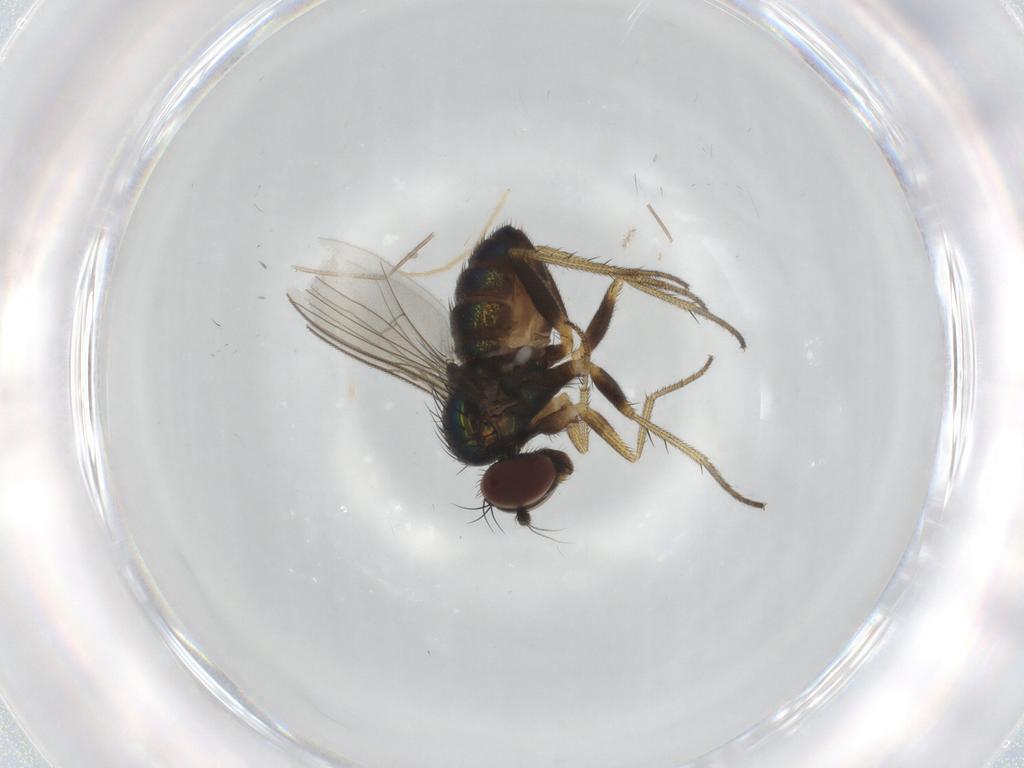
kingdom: Animalia
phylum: Arthropoda
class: Insecta
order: Diptera
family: Dolichopodidae
